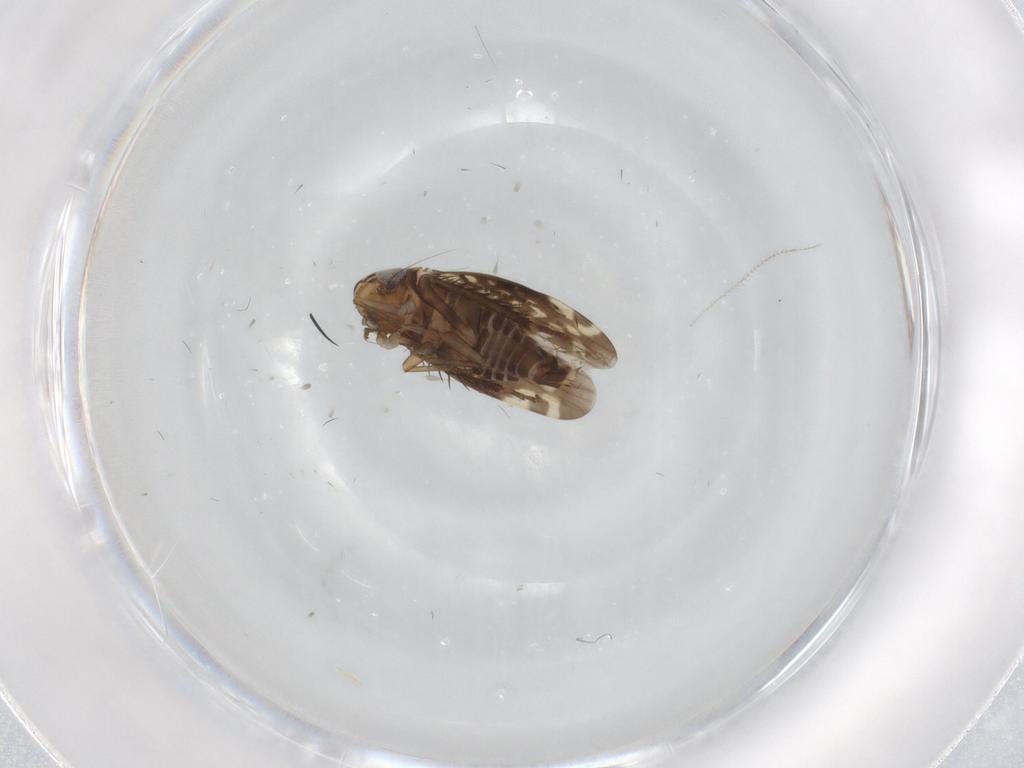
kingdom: Animalia
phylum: Arthropoda
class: Insecta
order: Hemiptera
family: Cicadellidae
